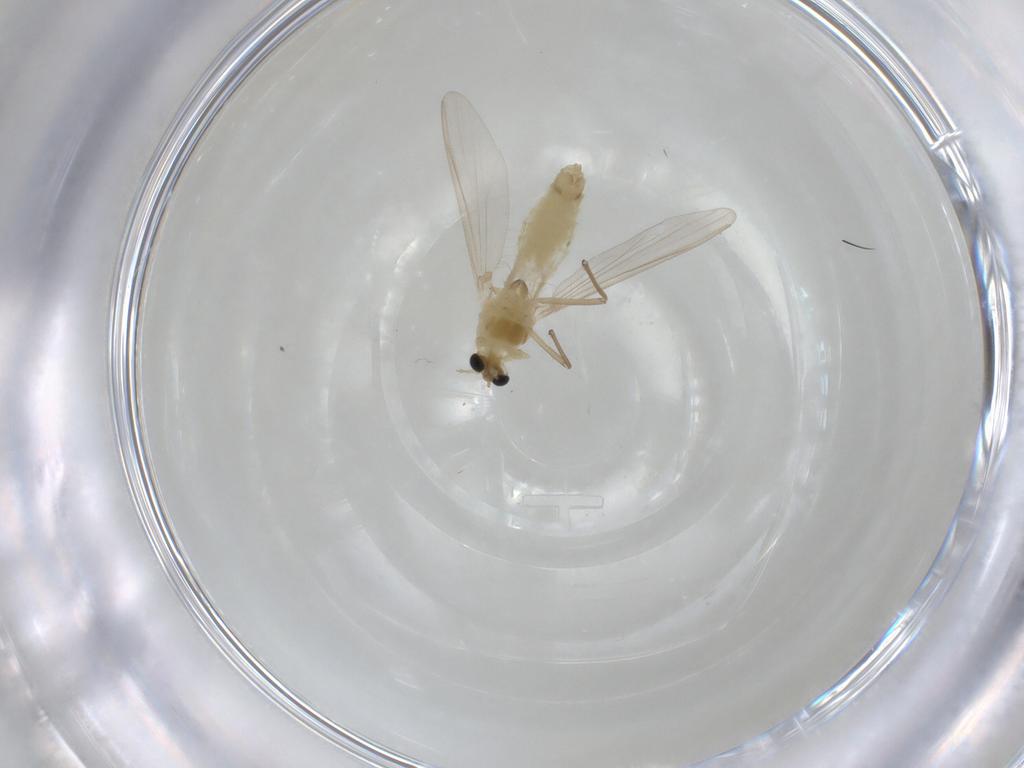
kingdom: Animalia
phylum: Arthropoda
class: Insecta
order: Diptera
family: Chironomidae
